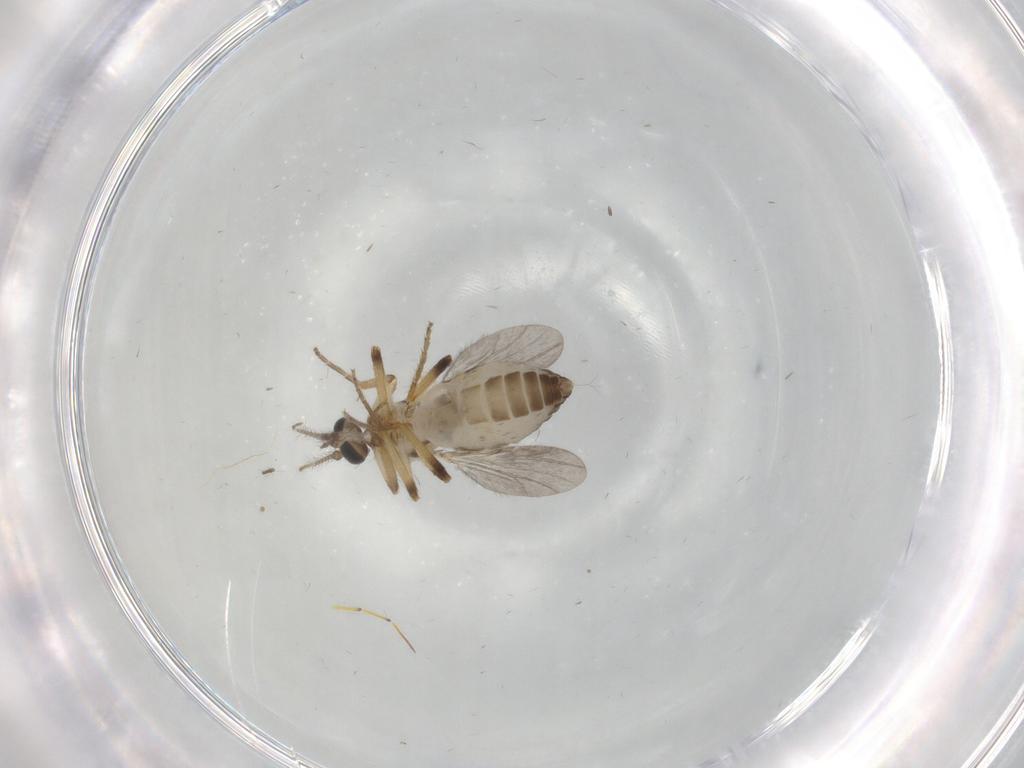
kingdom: Animalia
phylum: Arthropoda
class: Insecta
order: Diptera
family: Ceratopogonidae
